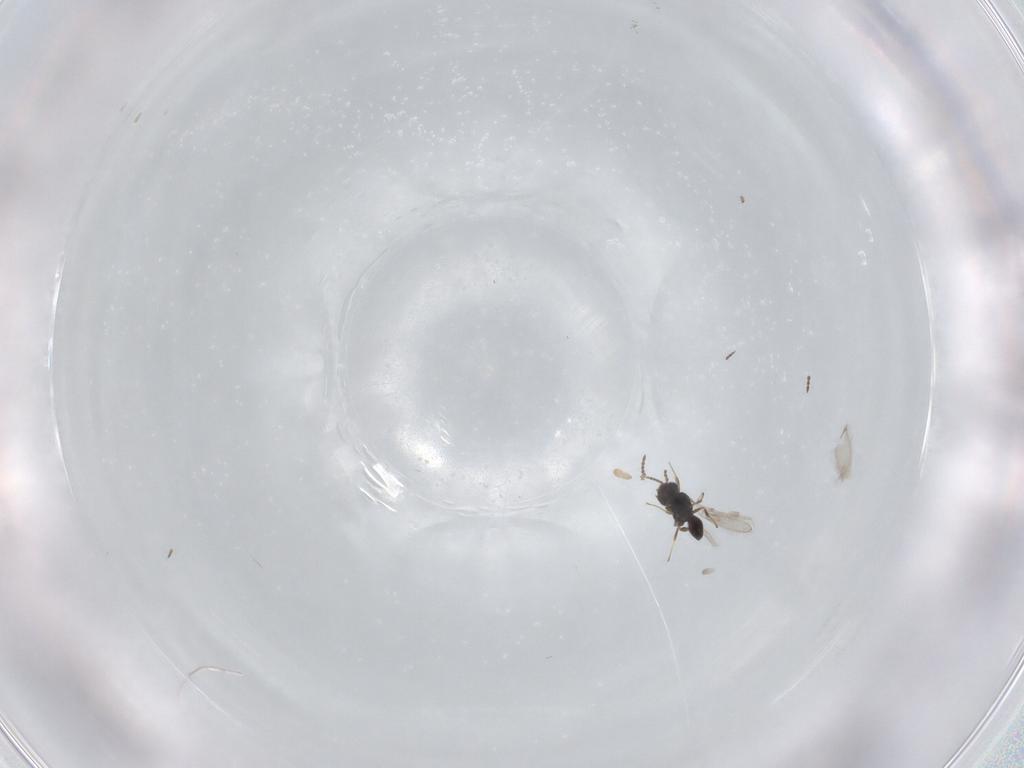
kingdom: Animalia
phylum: Arthropoda
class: Insecta
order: Hymenoptera
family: Scelionidae
